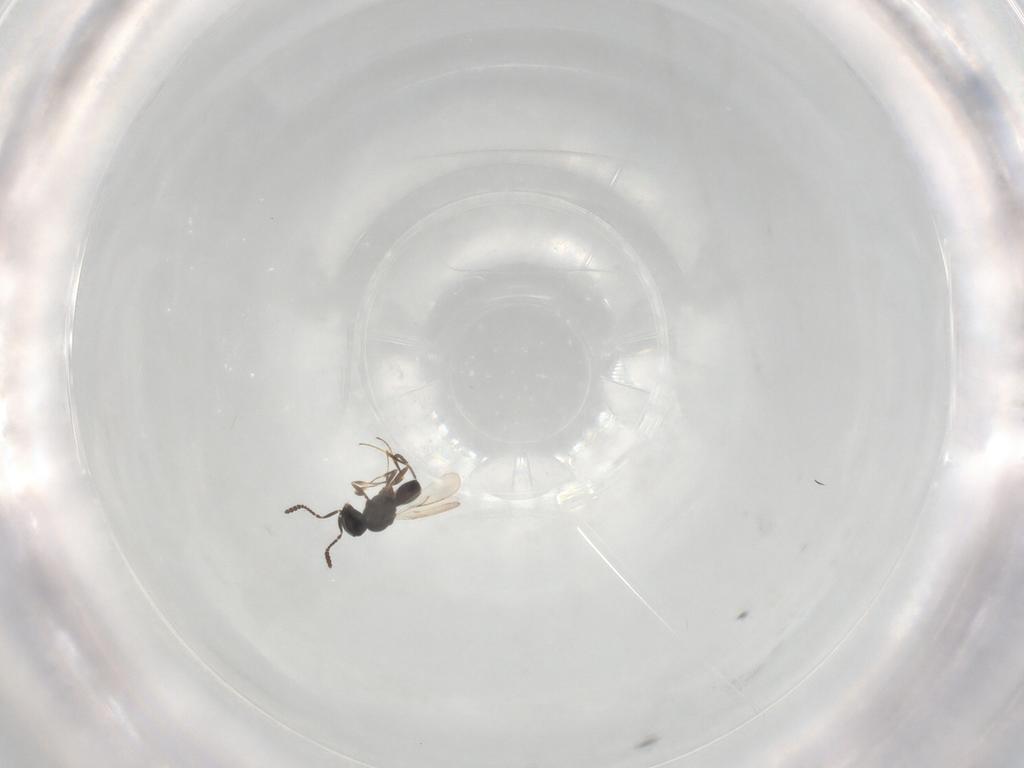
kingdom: Animalia
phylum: Arthropoda
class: Insecta
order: Hymenoptera
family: Scelionidae
